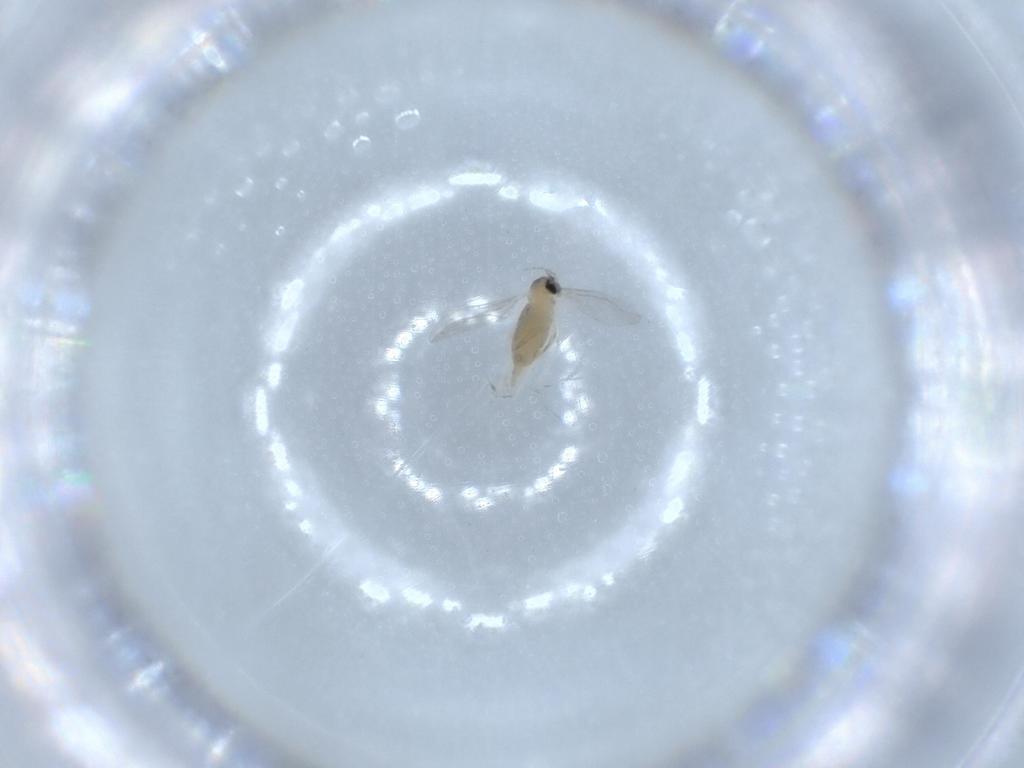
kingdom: Animalia
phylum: Arthropoda
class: Insecta
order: Diptera
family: Cecidomyiidae
